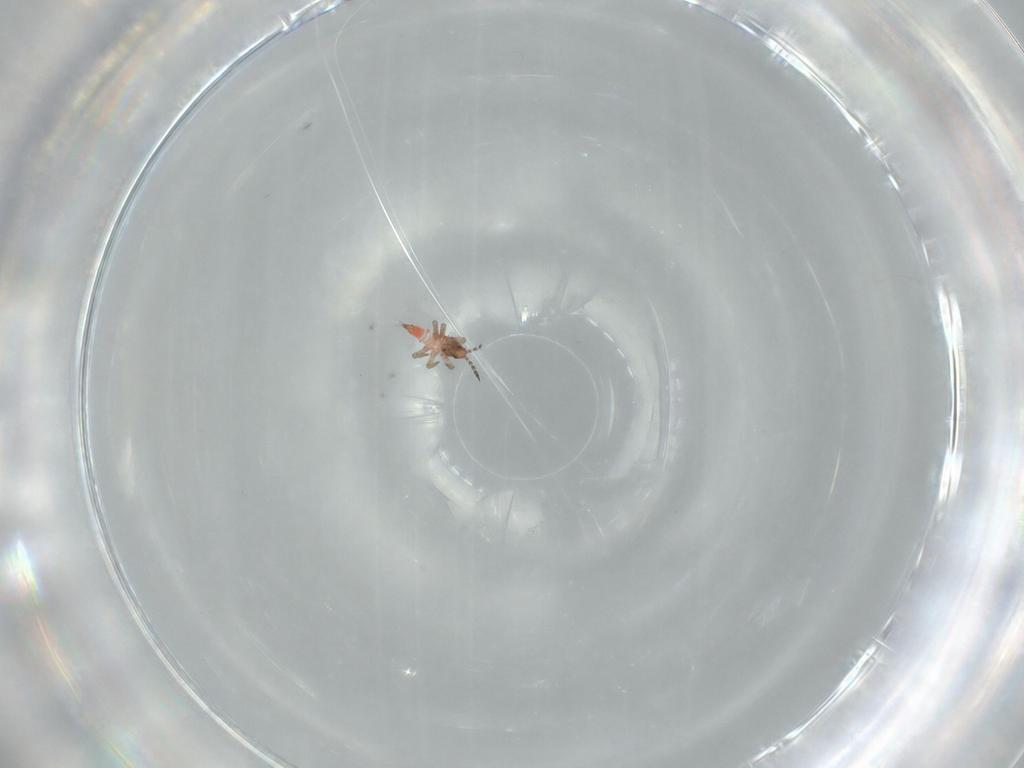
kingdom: Animalia
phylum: Arthropoda
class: Insecta
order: Thysanoptera
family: Phlaeothripidae
